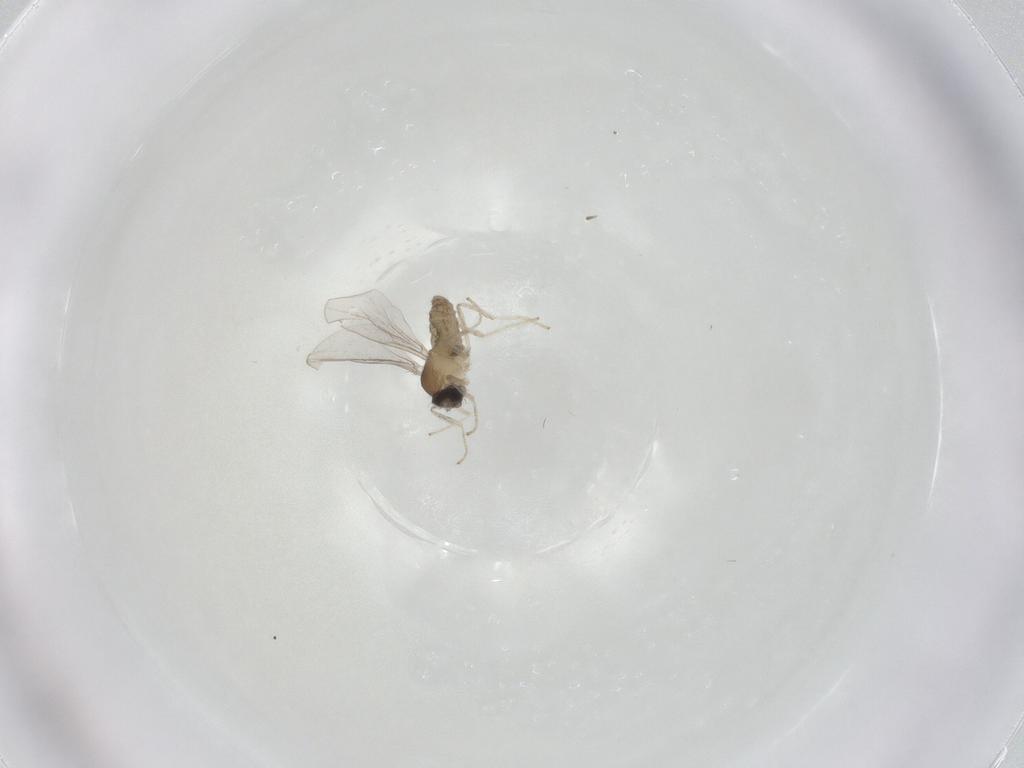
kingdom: Animalia
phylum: Arthropoda
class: Insecta
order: Diptera
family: Cecidomyiidae
